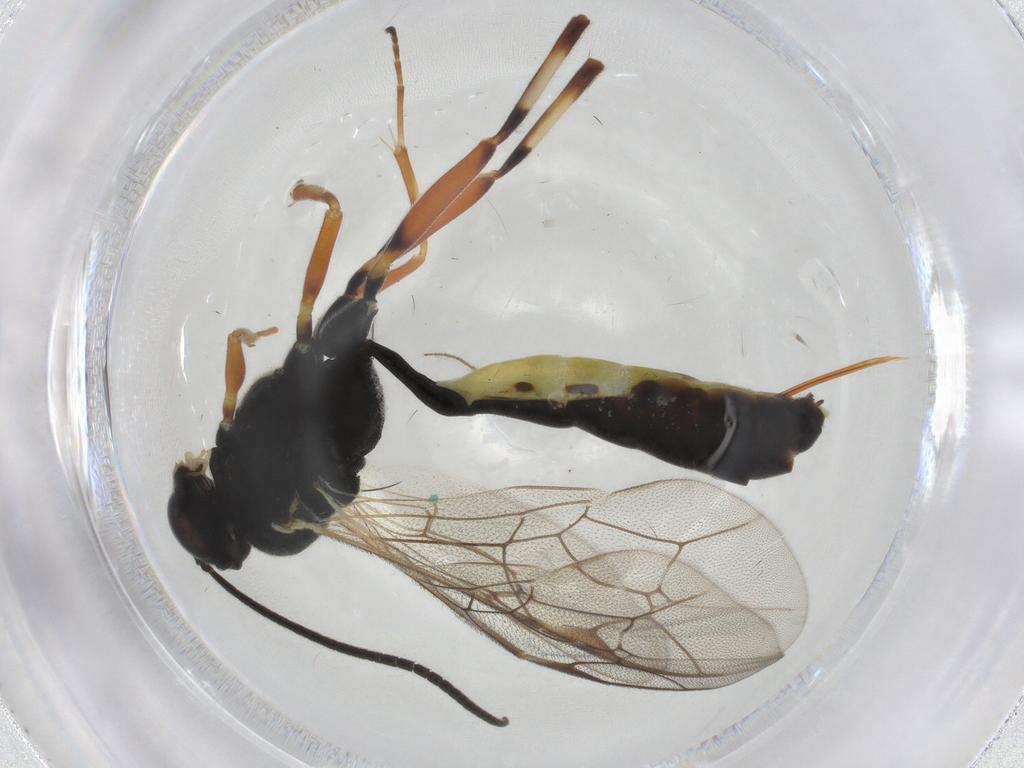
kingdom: Animalia
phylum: Arthropoda
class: Insecta
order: Hymenoptera
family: Ichneumonidae
